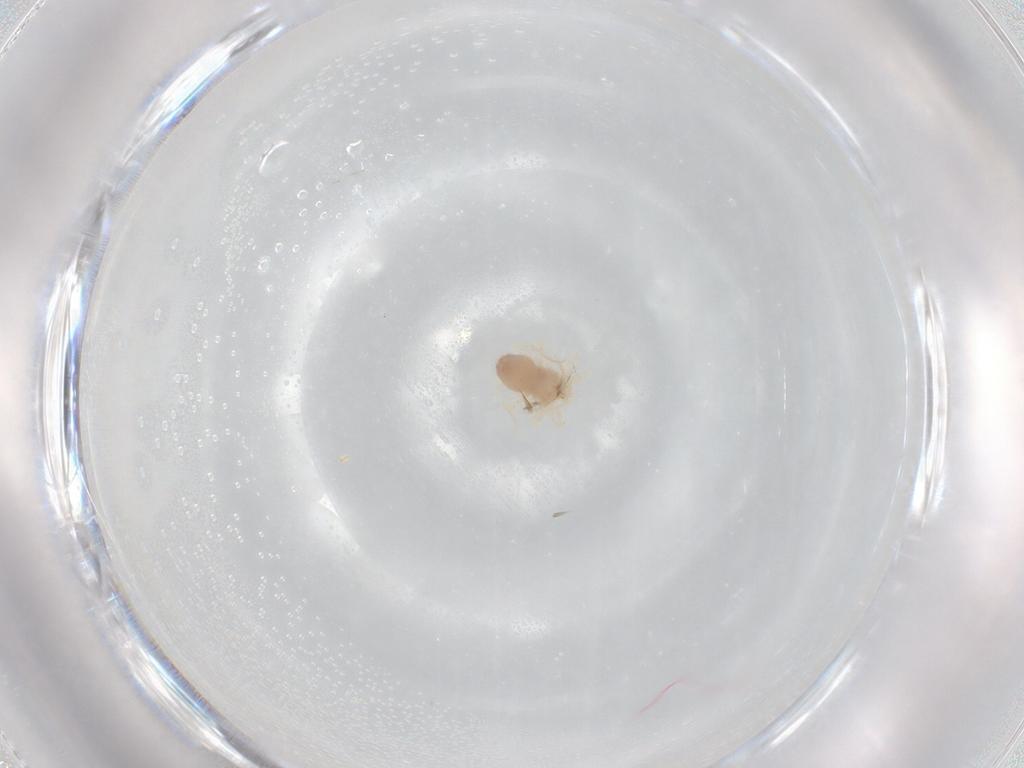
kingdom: Animalia
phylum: Arthropoda
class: Arachnida
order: Trombidiformes
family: Anystidae
